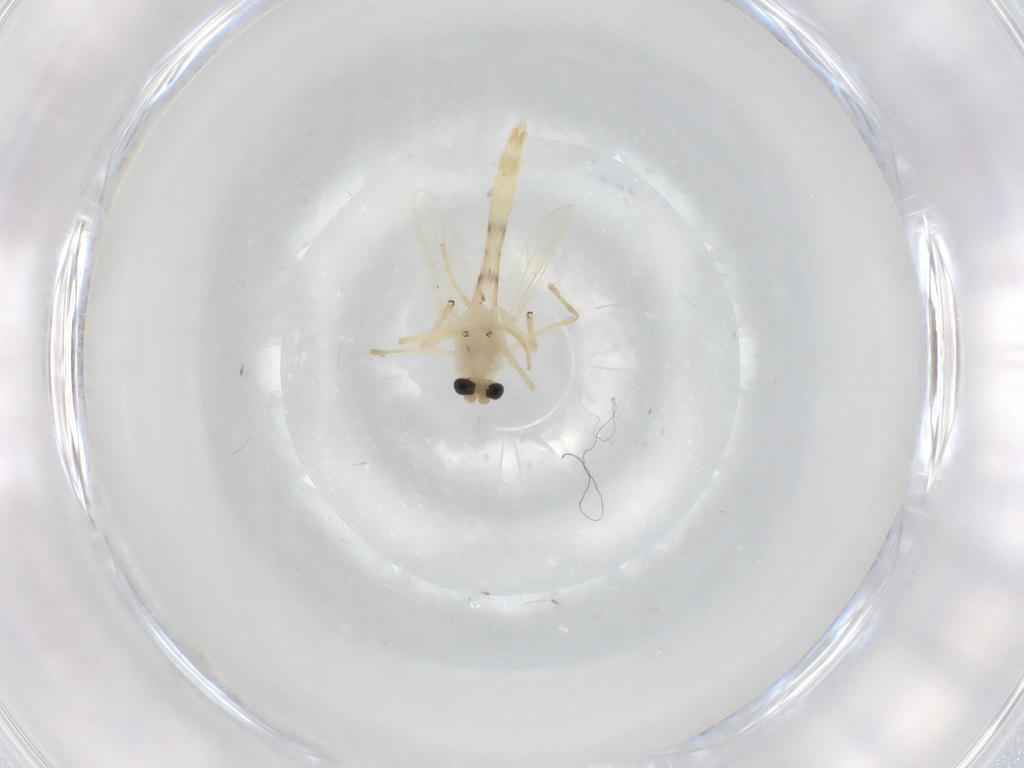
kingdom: Animalia
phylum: Arthropoda
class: Insecta
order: Diptera
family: Chironomidae
